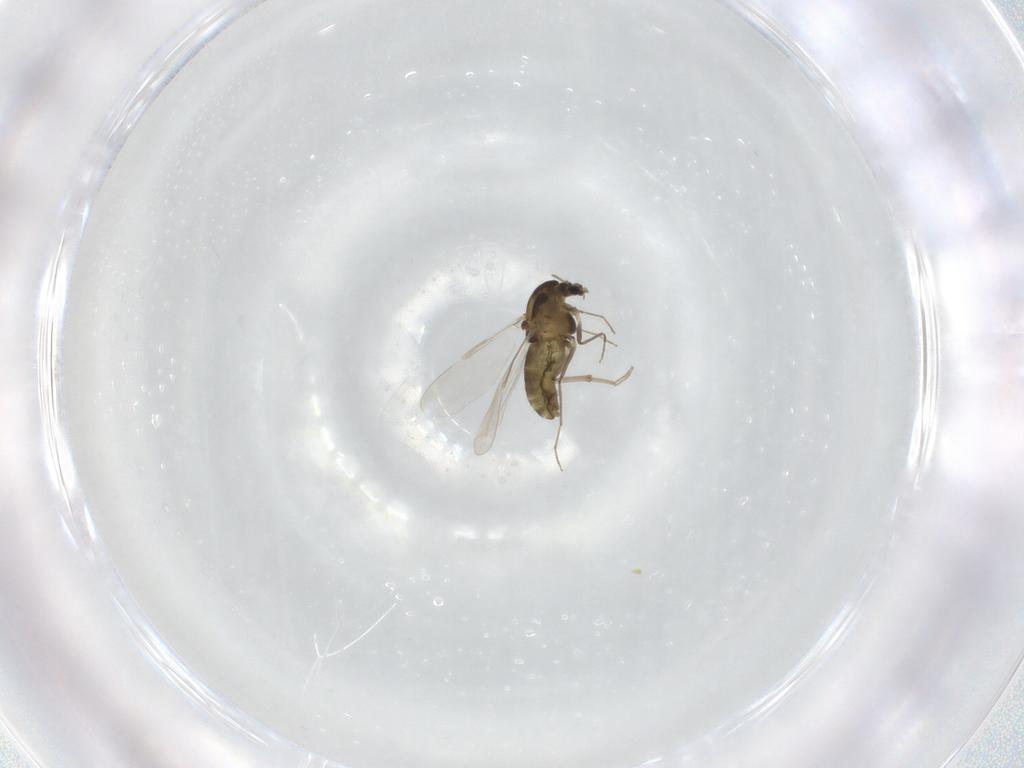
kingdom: Animalia
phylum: Arthropoda
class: Insecta
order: Diptera
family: Chironomidae
